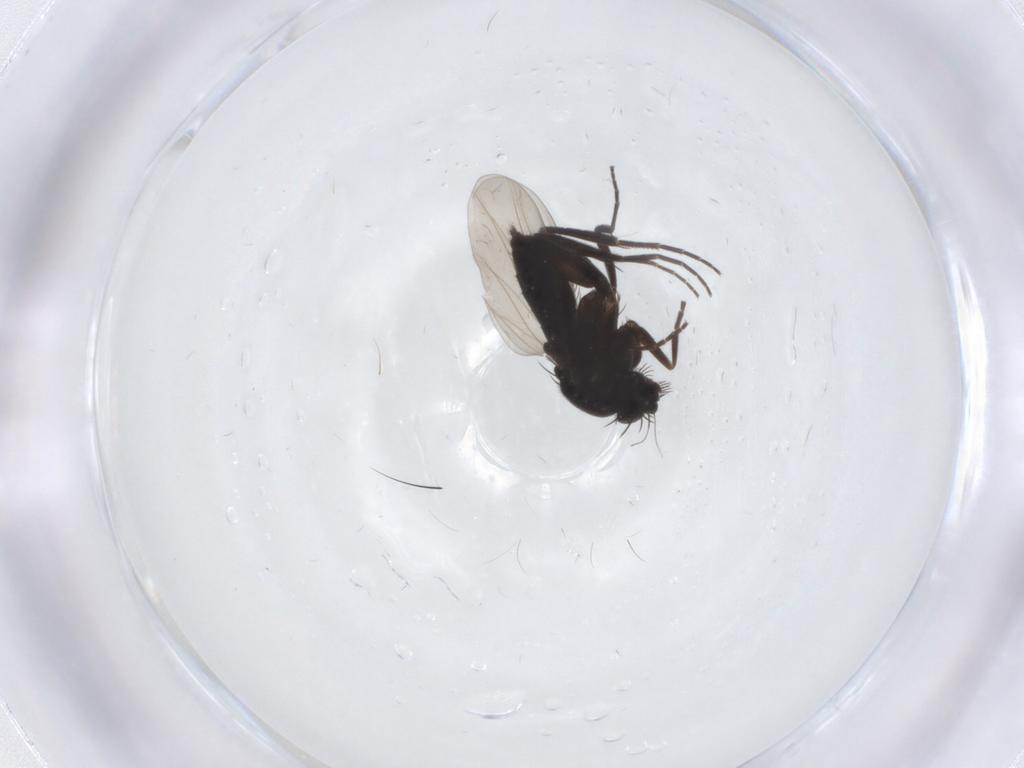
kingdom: Animalia
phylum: Arthropoda
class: Insecta
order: Diptera
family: Phoridae
